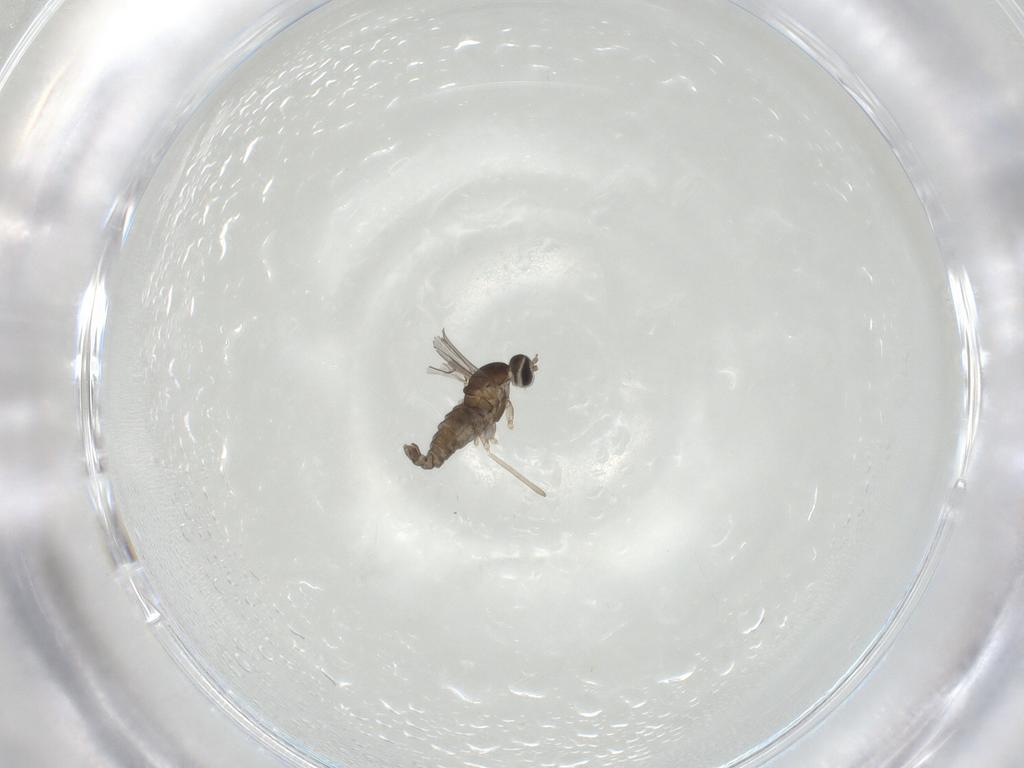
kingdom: Animalia
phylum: Arthropoda
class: Insecta
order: Diptera
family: Cecidomyiidae
